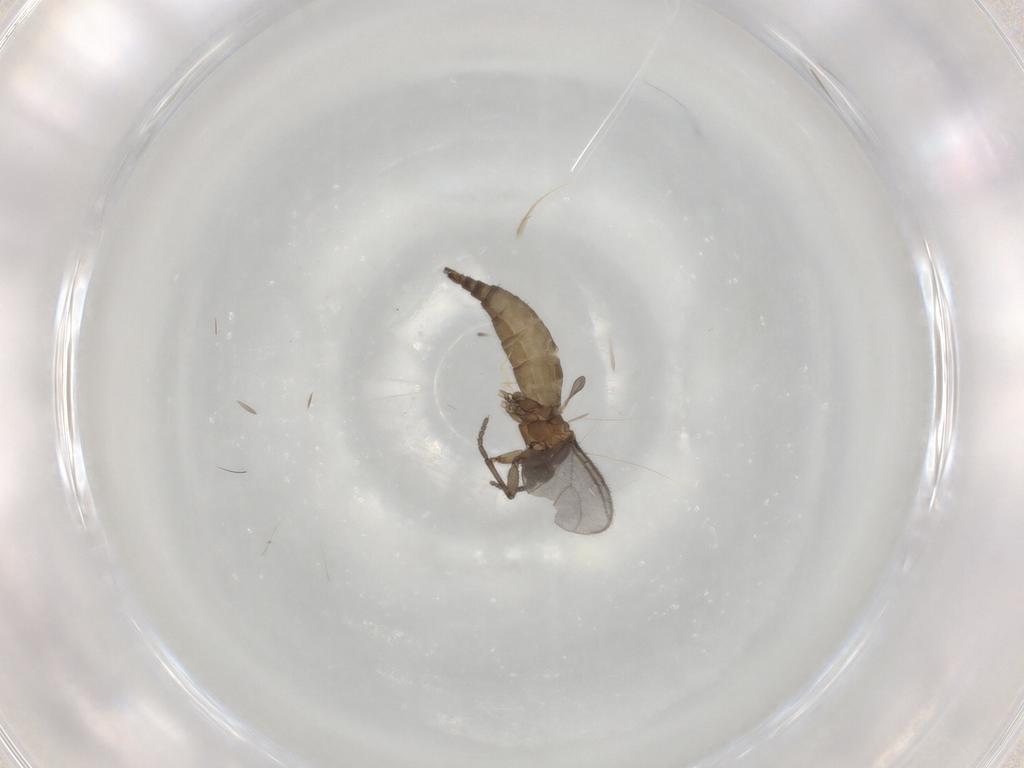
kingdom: Animalia
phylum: Arthropoda
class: Insecta
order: Diptera
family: Sciaridae
